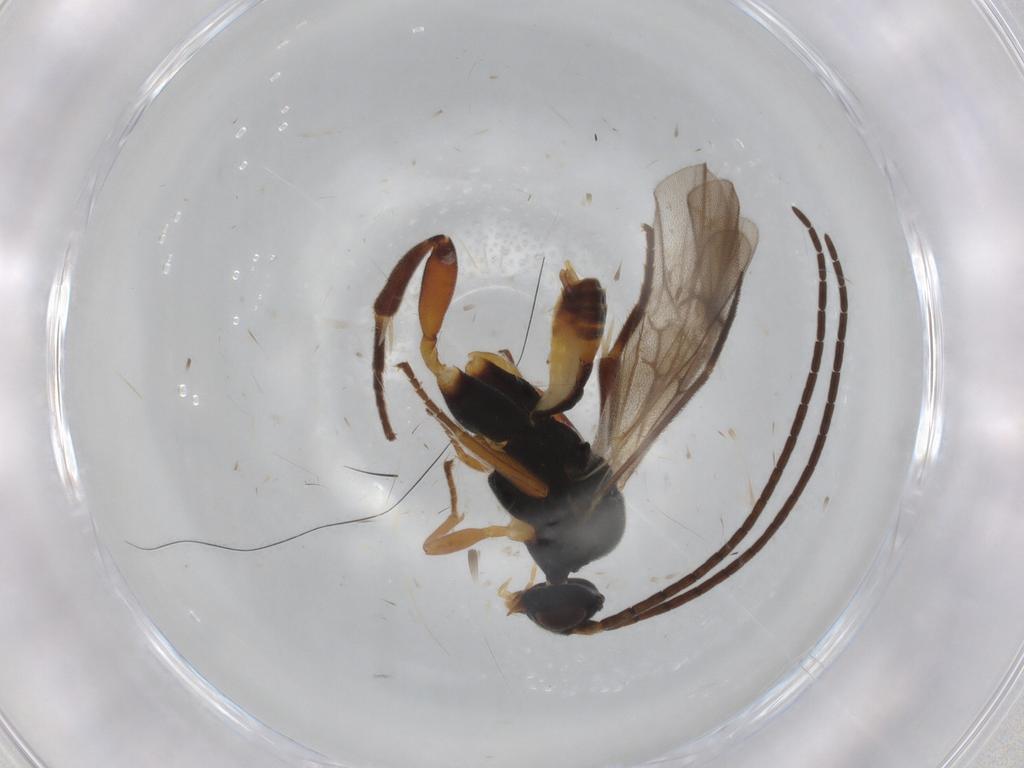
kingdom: Animalia
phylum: Arthropoda
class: Insecta
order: Hymenoptera
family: Braconidae
